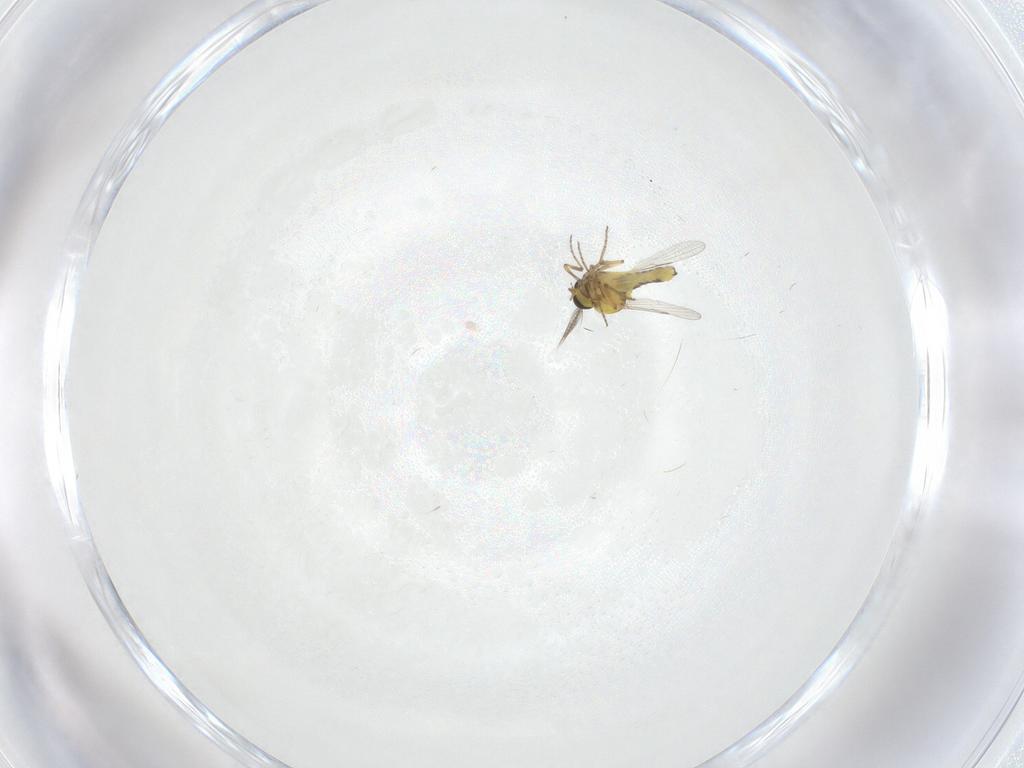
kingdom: Animalia
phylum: Arthropoda
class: Insecta
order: Diptera
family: Ceratopogonidae
